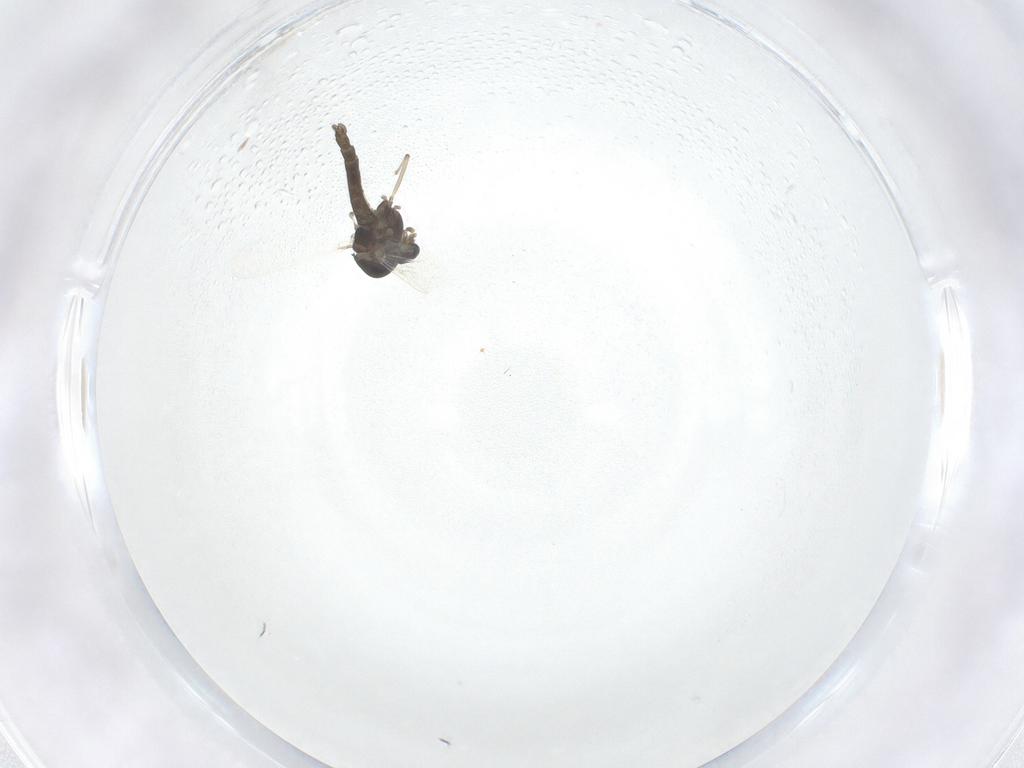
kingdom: Animalia
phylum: Arthropoda
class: Insecta
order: Diptera
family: Chironomidae
